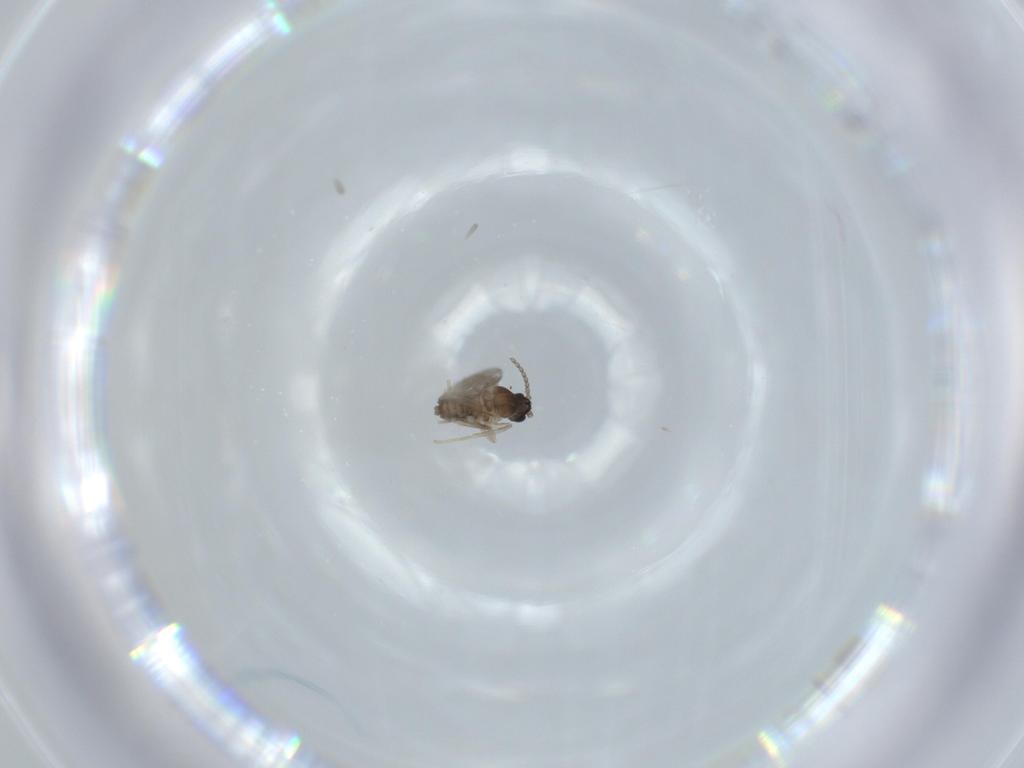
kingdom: Animalia
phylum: Arthropoda
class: Insecta
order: Diptera
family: Cecidomyiidae
